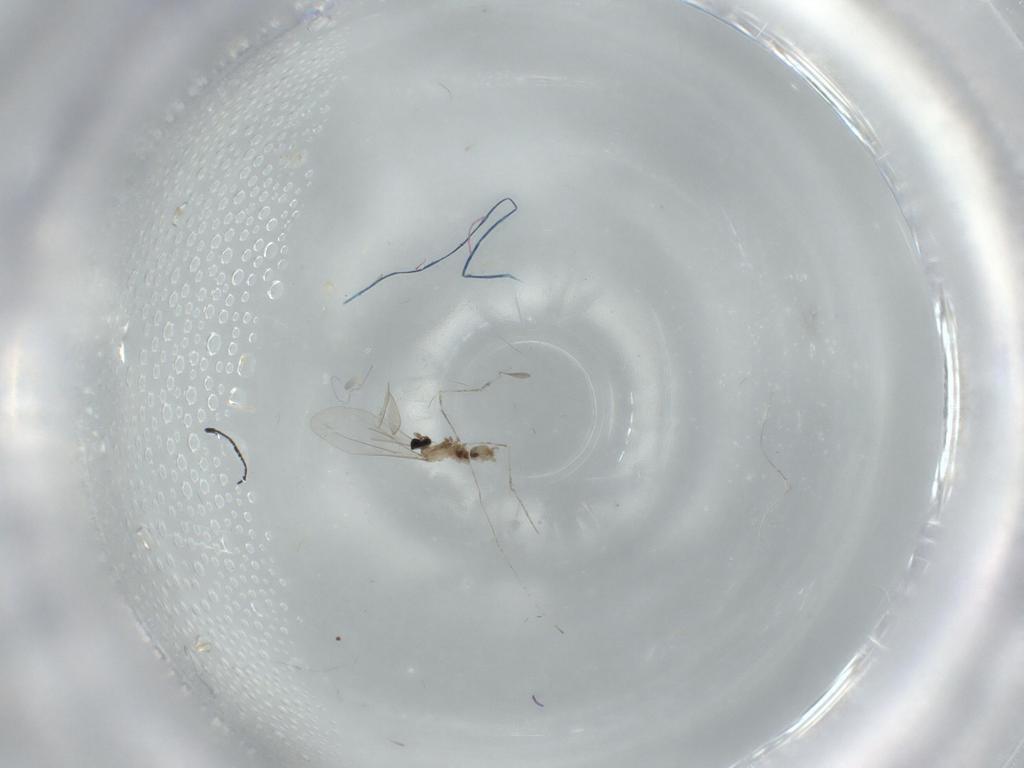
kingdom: Animalia
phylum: Arthropoda
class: Insecta
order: Diptera
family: Cecidomyiidae
